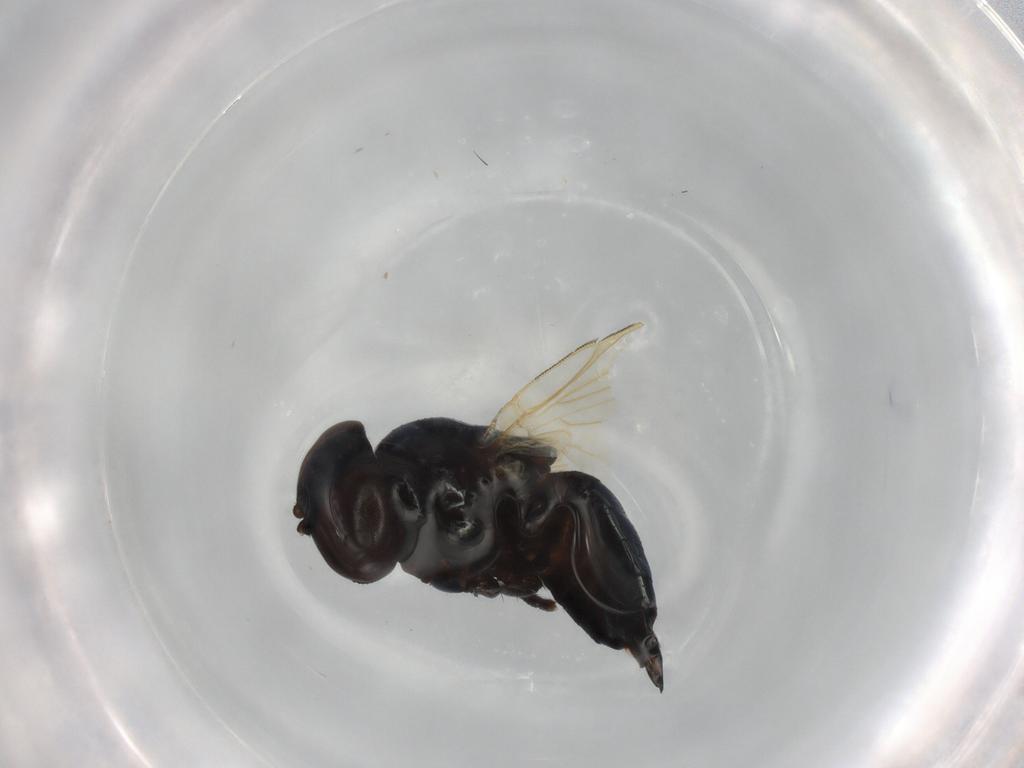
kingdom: Animalia
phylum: Arthropoda
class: Insecta
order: Diptera
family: Lonchaeidae
